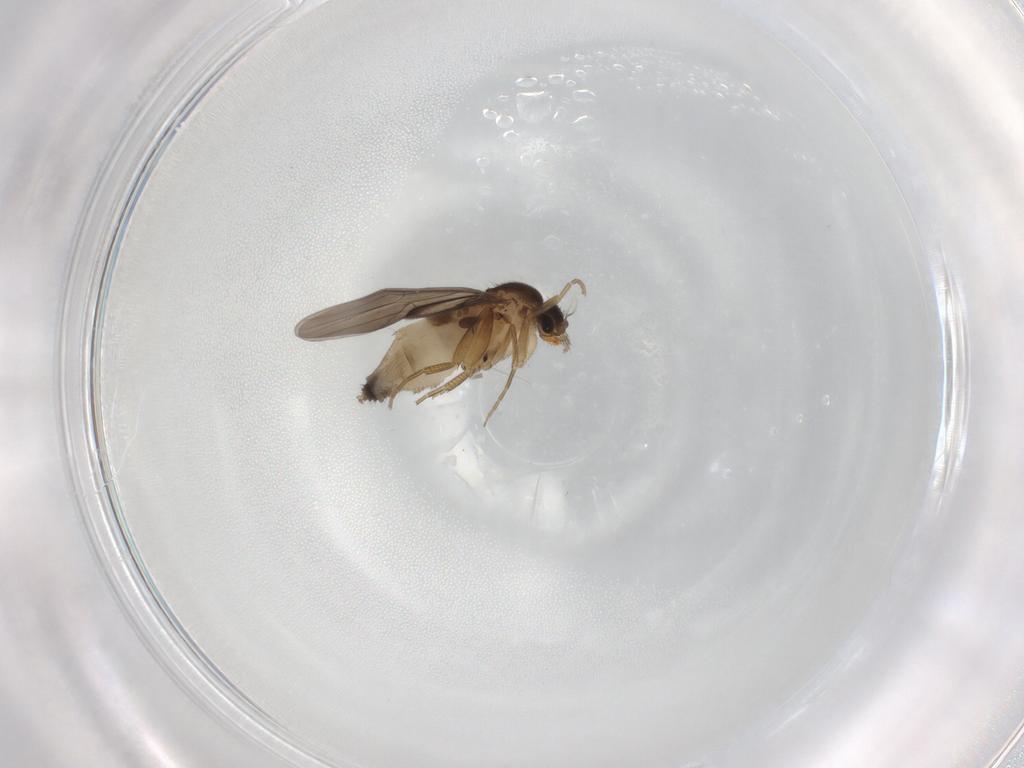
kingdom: Animalia
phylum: Arthropoda
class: Insecta
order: Diptera
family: Phoridae
